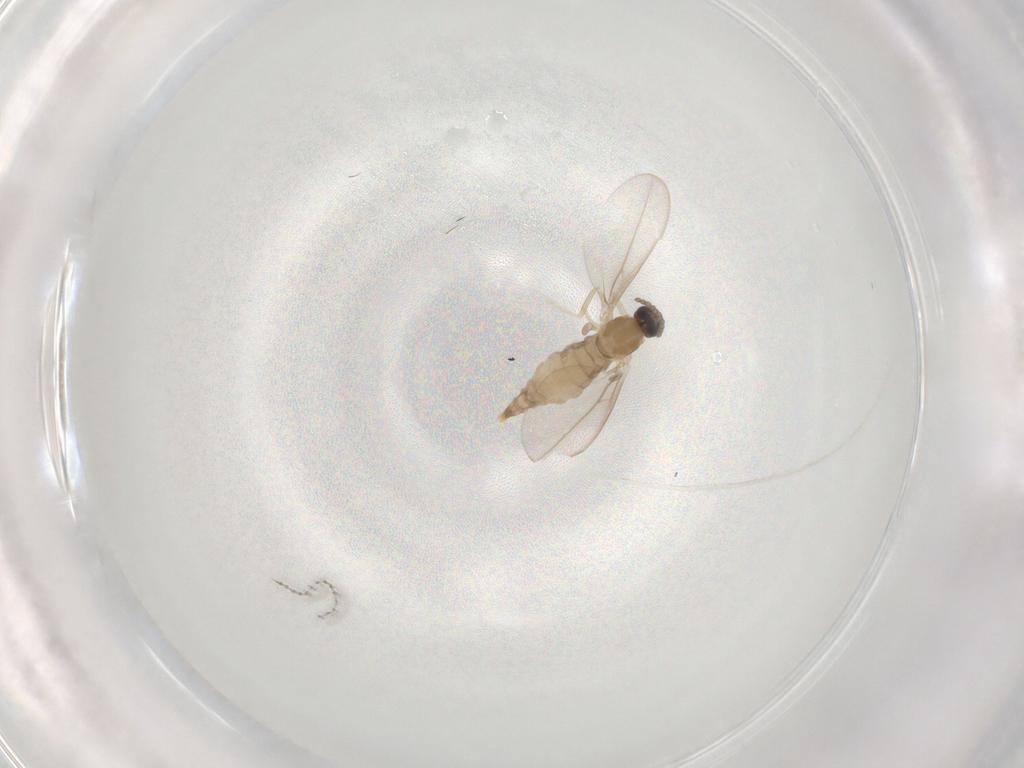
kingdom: Animalia
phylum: Arthropoda
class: Insecta
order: Diptera
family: Cecidomyiidae
